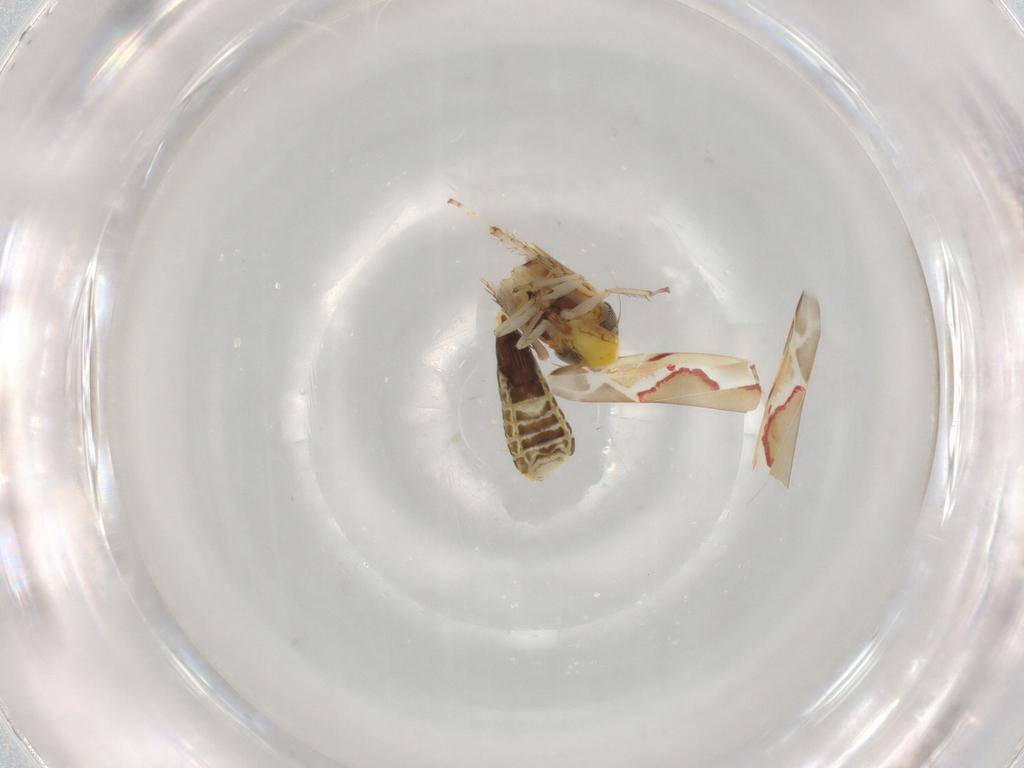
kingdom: Animalia
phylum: Arthropoda
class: Insecta
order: Hemiptera
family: Cicadellidae
